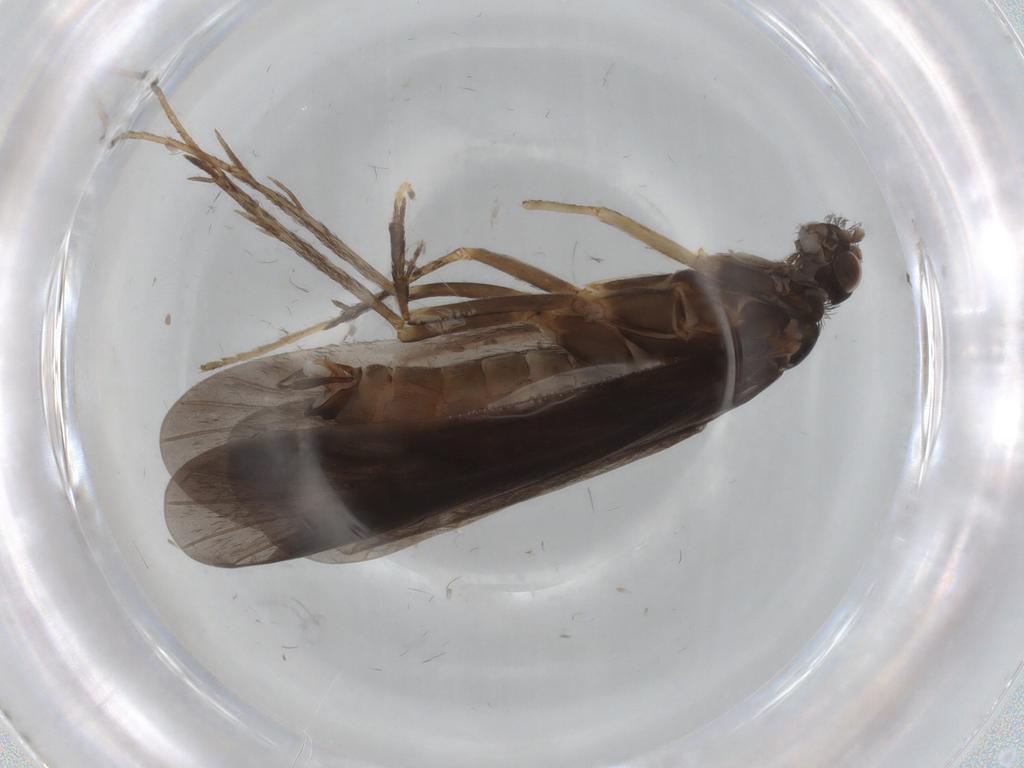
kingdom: Animalia
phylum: Arthropoda
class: Insecta
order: Trichoptera
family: Hydropsychidae
